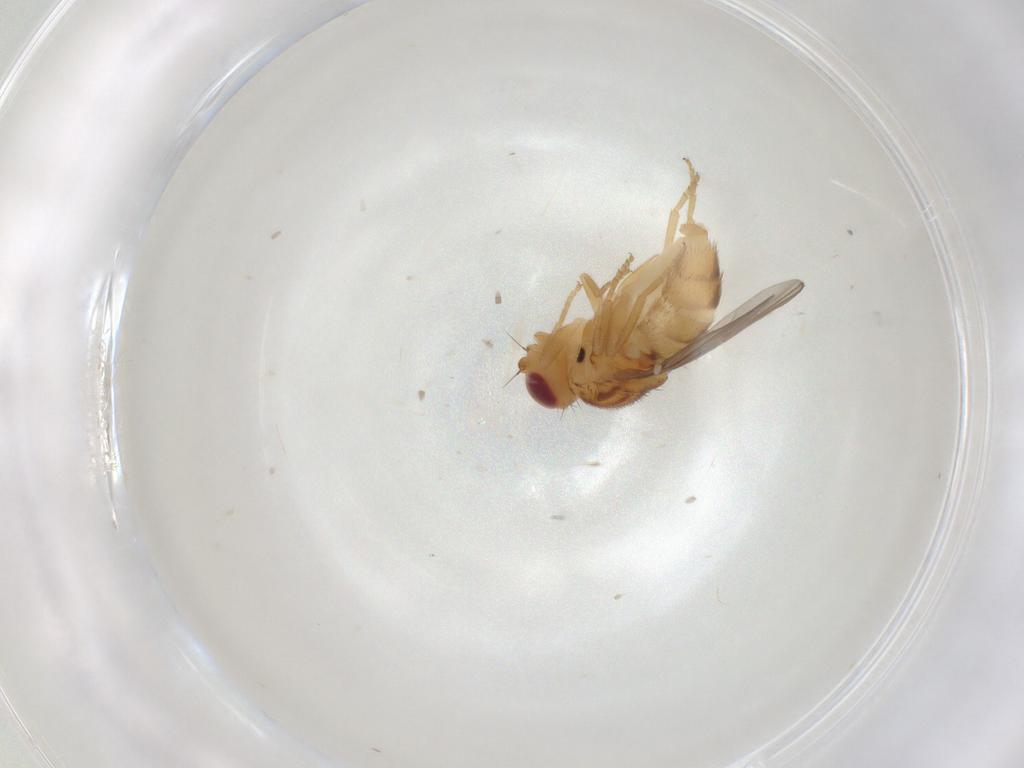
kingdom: Animalia
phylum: Arthropoda
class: Insecta
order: Diptera
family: Chloropidae
